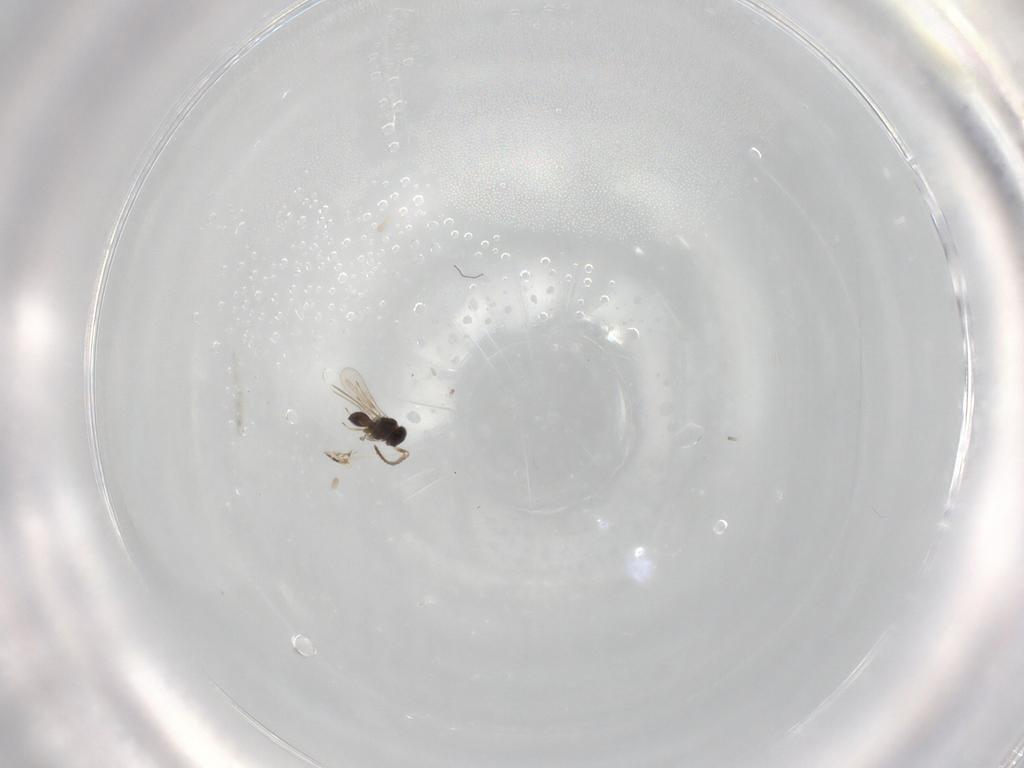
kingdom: Animalia
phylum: Arthropoda
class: Insecta
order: Hymenoptera
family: Scelionidae
